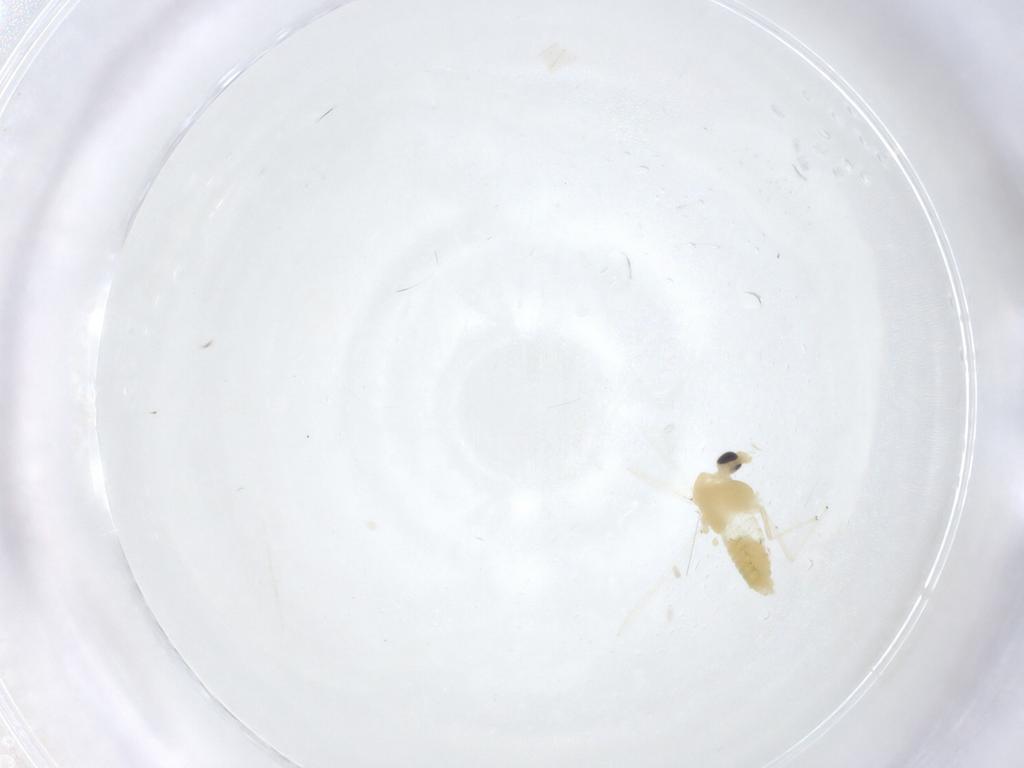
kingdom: Animalia
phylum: Arthropoda
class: Insecta
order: Diptera
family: Chironomidae
